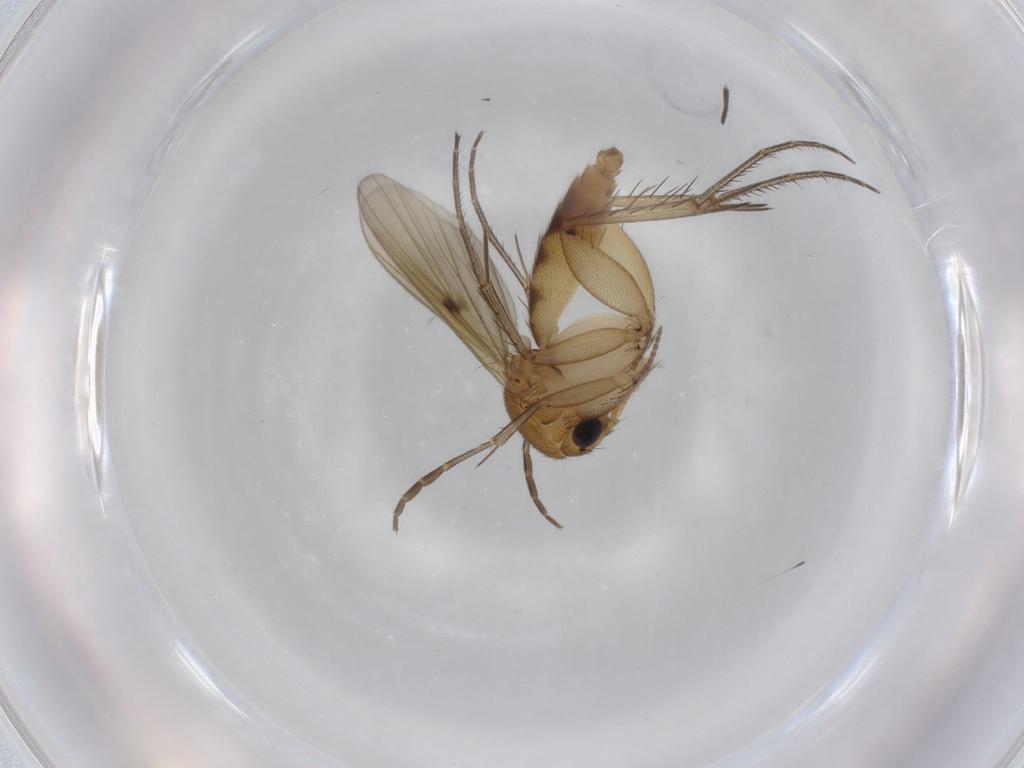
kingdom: Animalia
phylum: Arthropoda
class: Insecta
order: Diptera
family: Mycetophilidae
